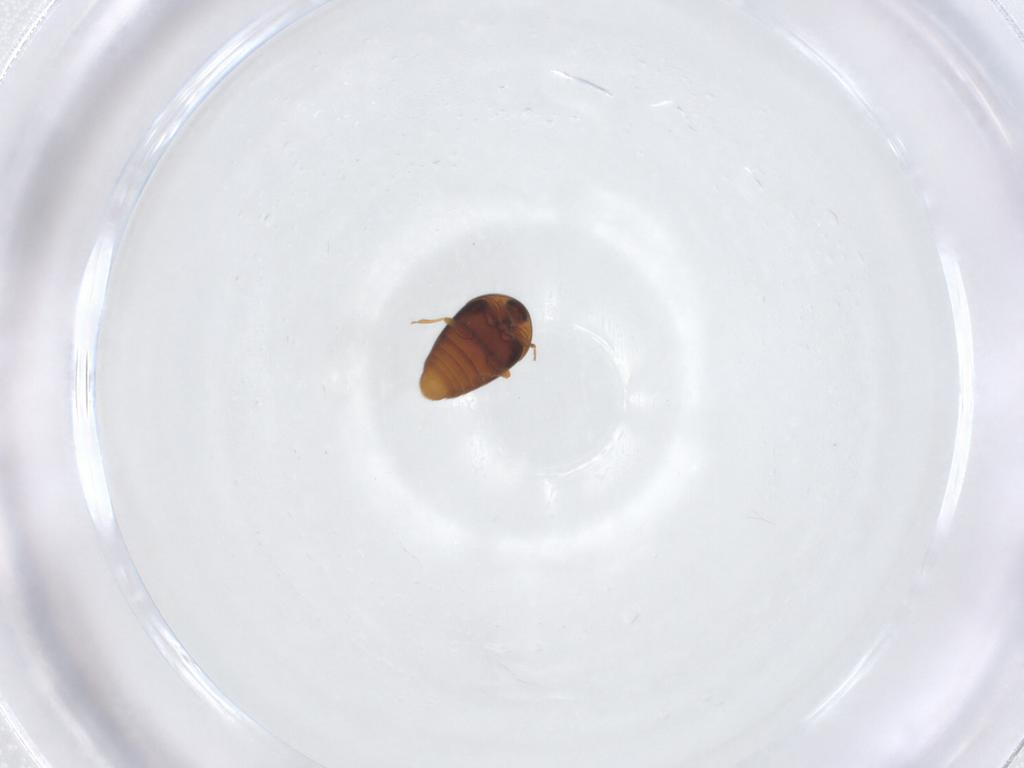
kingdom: Animalia
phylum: Arthropoda
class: Insecta
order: Coleoptera
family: Corylophidae
